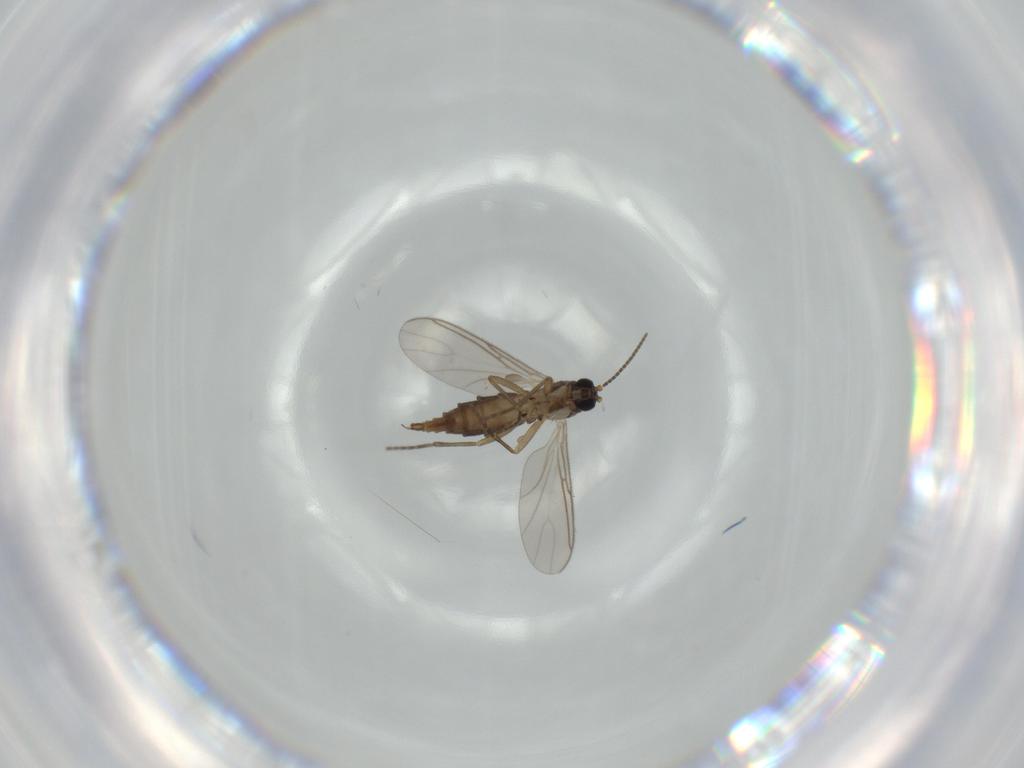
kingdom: Animalia
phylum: Arthropoda
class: Insecta
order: Diptera
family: Sciaridae
